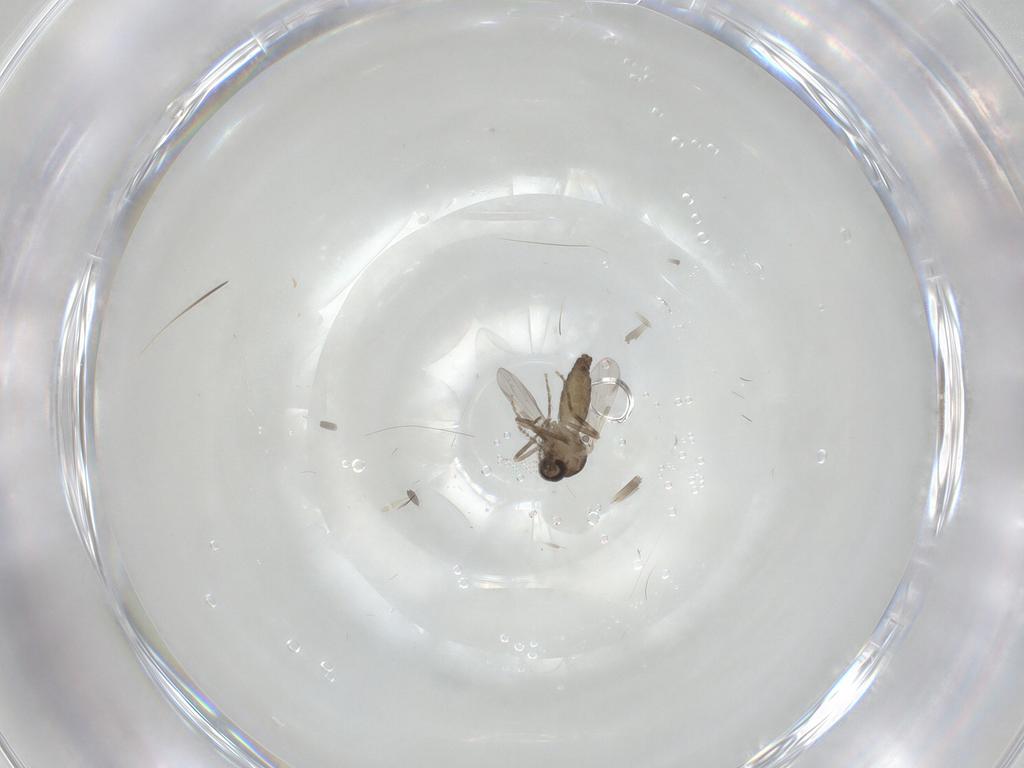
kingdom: Animalia
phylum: Arthropoda
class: Insecta
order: Diptera
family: Ceratopogonidae
